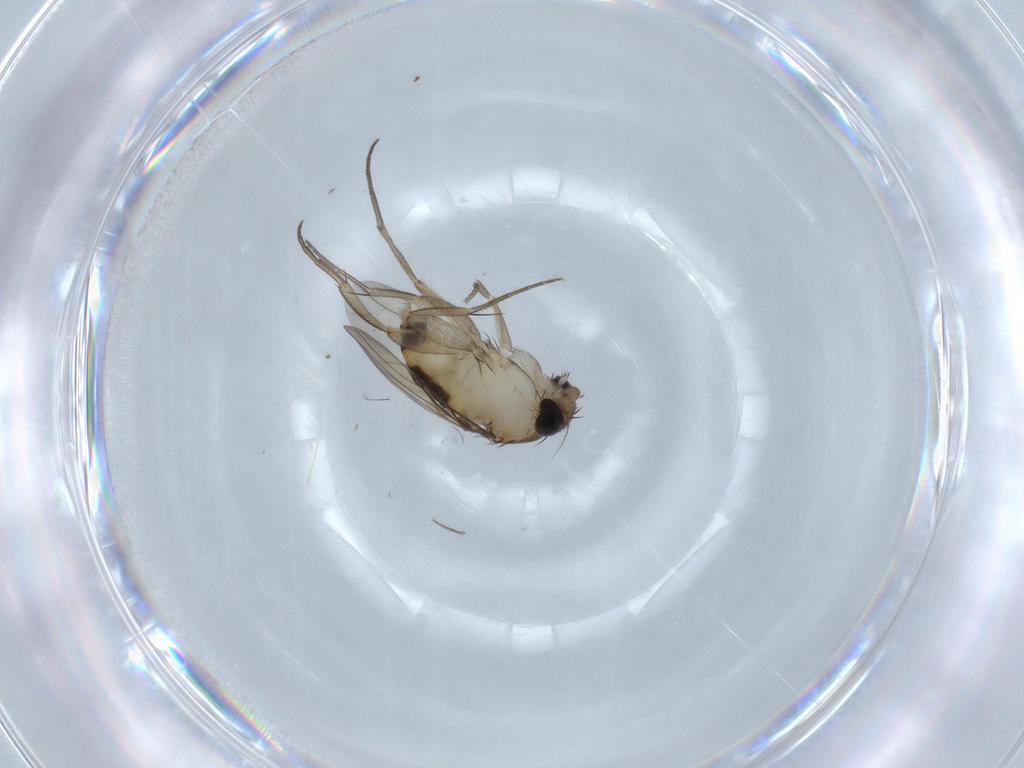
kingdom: Animalia
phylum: Arthropoda
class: Insecta
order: Diptera
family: Phoridae
